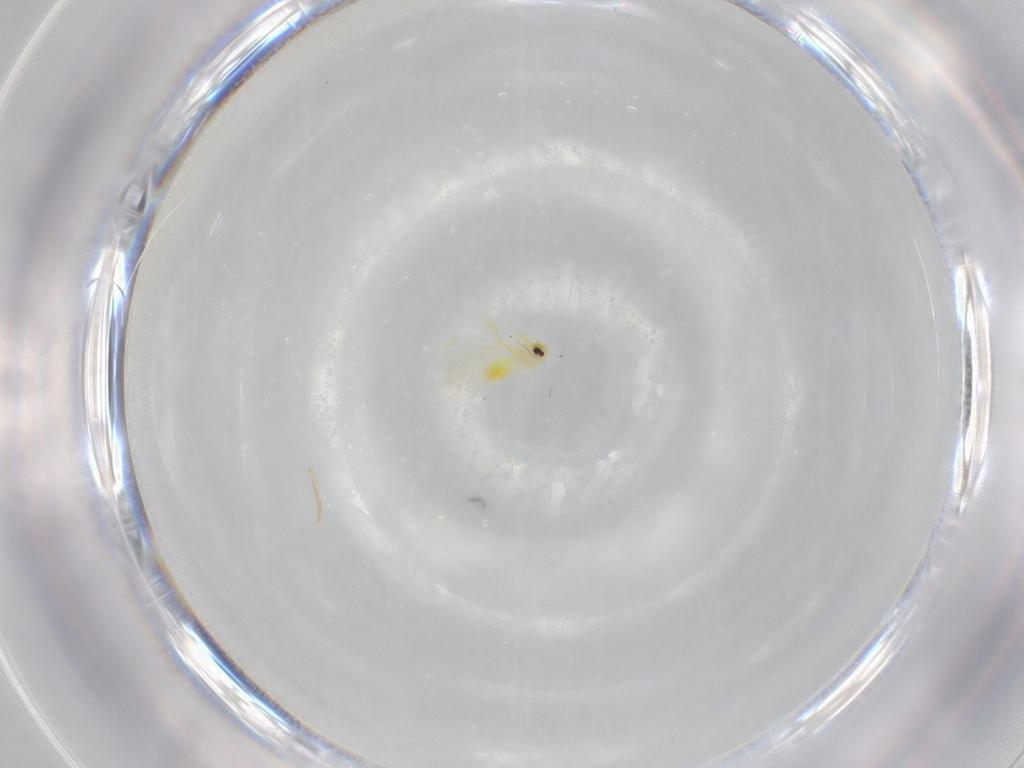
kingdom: Animalia
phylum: Arthropoda
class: Insecta
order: Hemiptera
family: Aleyrodidae
